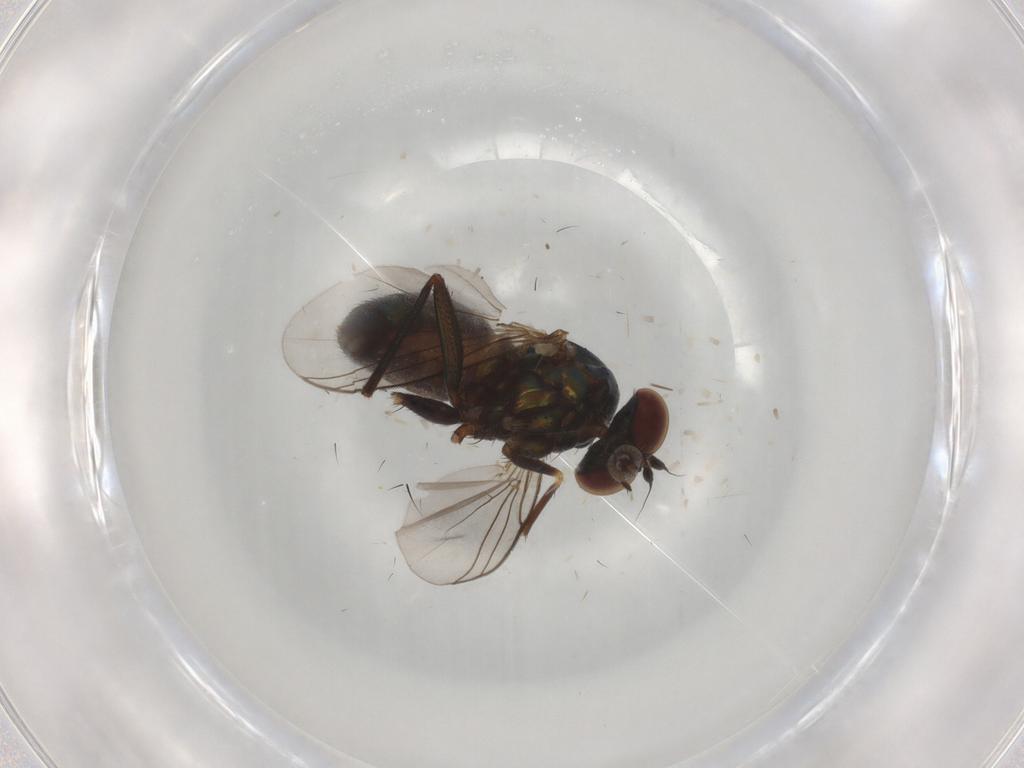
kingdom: Animalia
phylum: Arthropoda
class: Insecta
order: Diptera
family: Dolichopodidae
